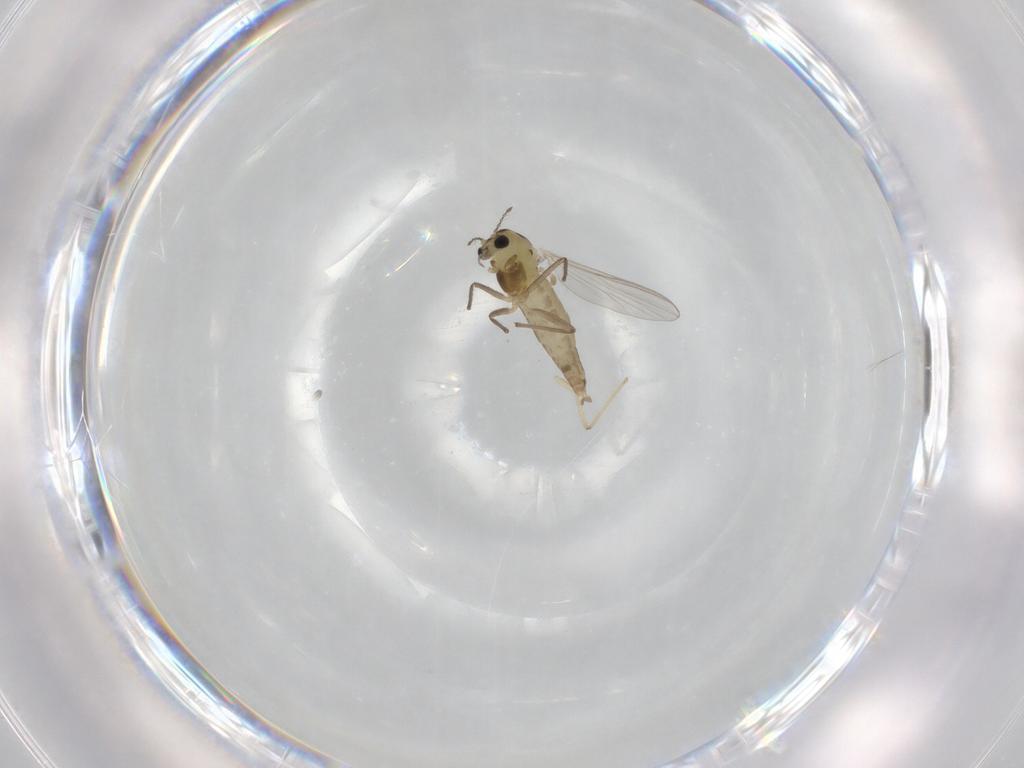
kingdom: Animalia
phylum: Arthropoda
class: Insecta
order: Diptera
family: Chironomidae
